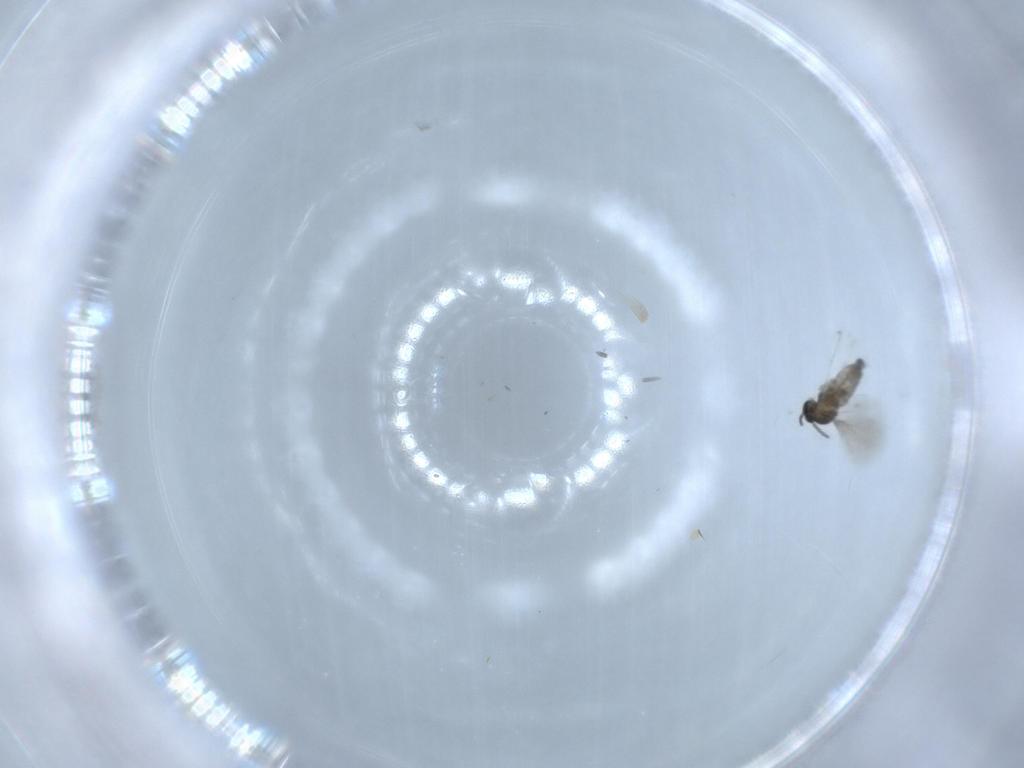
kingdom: Animalia
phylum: Arthropoda
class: Insecta
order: Diptera
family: Cecidomyiidae
